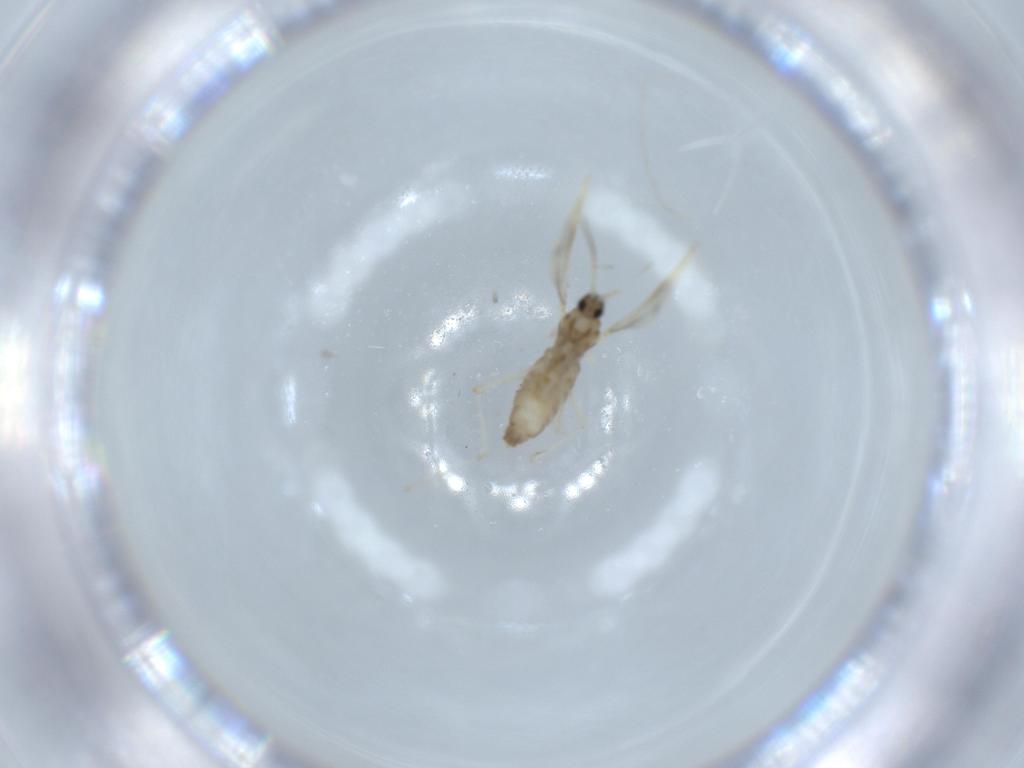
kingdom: Animalia
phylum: Arthropoda
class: Insecta
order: Diptera
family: Cecidomyiidae
